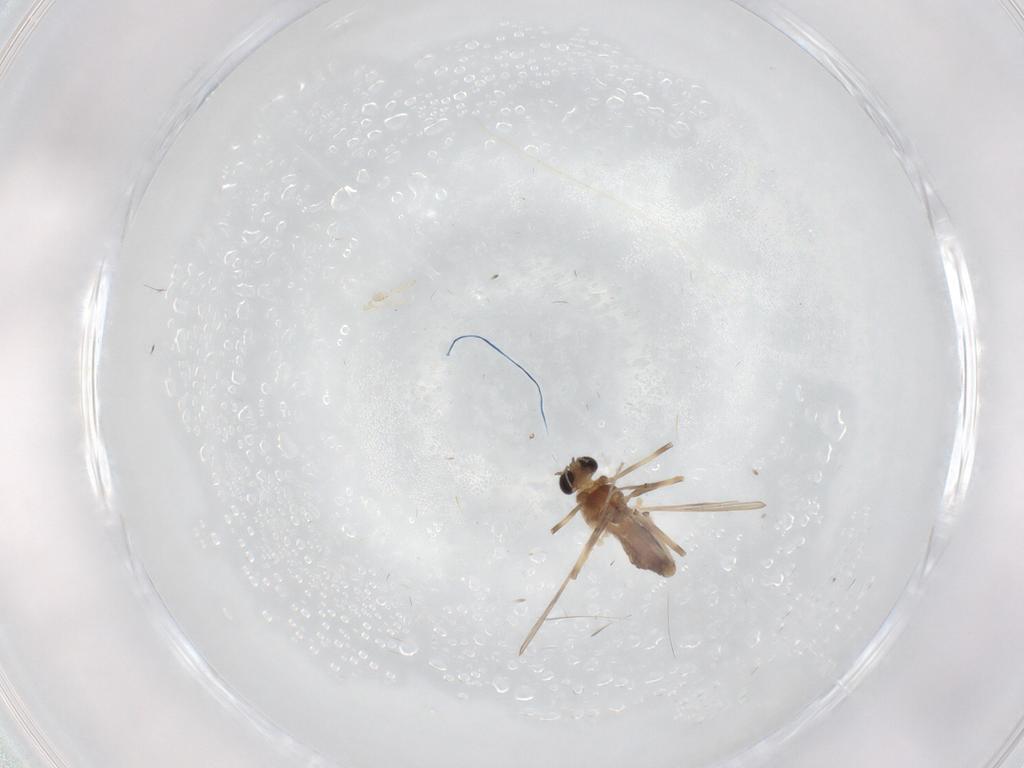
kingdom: Animalia
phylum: Arthropoda
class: Insecta
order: Diptera
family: Chironomidae
